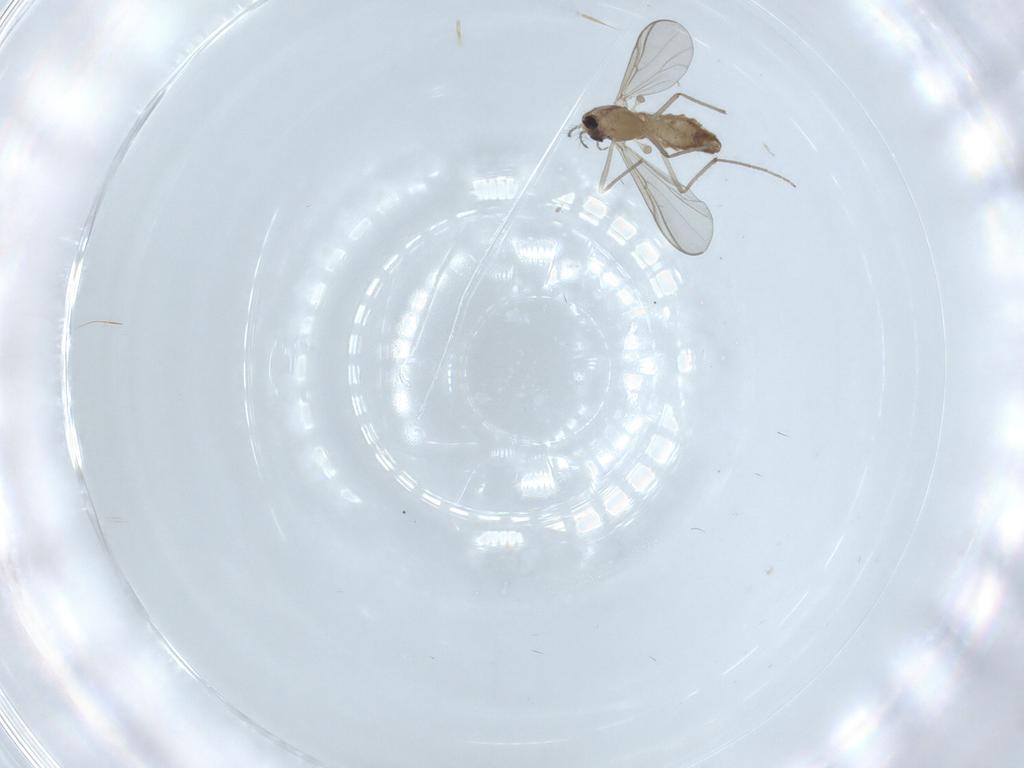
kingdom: Animalia
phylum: Arthropoda
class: Insecta
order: Diptera
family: Chironomidae
